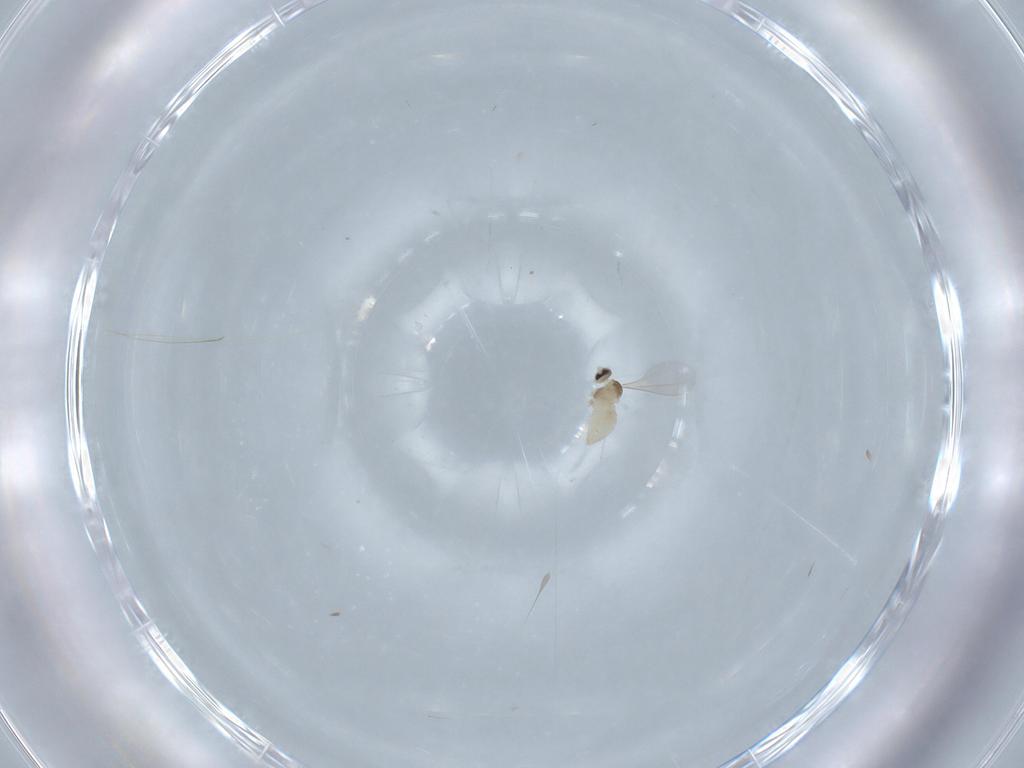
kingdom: Animalia
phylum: Arthropoda
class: Insecta
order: Diptera
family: Cecidomyiidae
